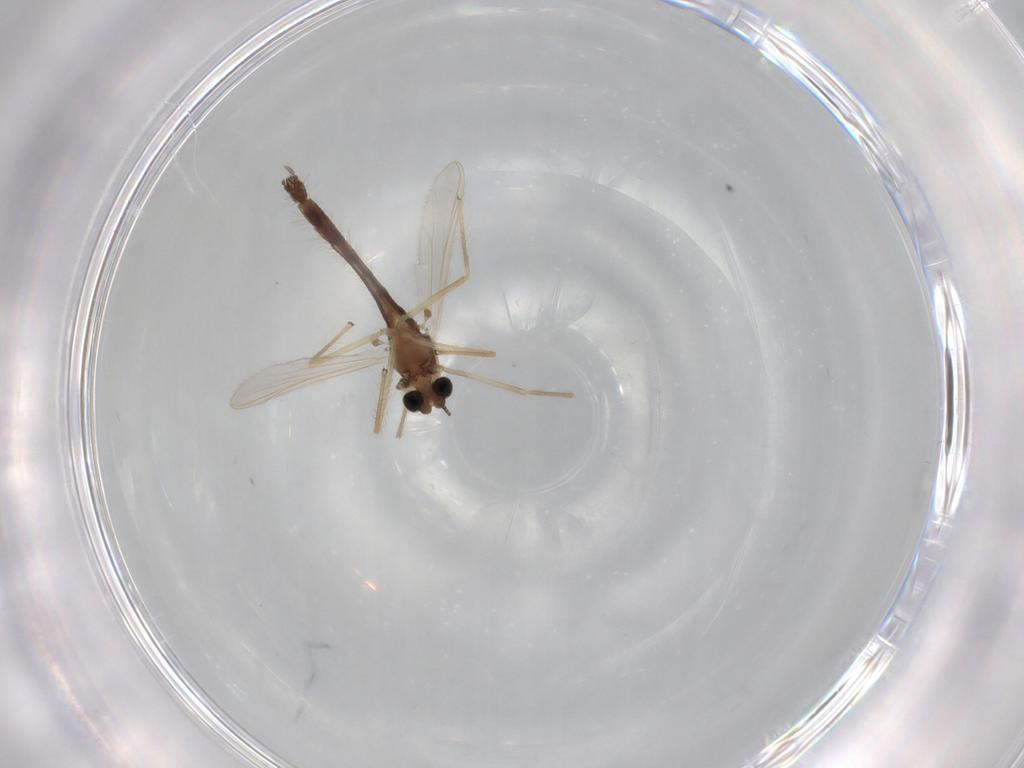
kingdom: Animalia
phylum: Arthropoda
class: Insecta
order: Diptera
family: Chironomidae
